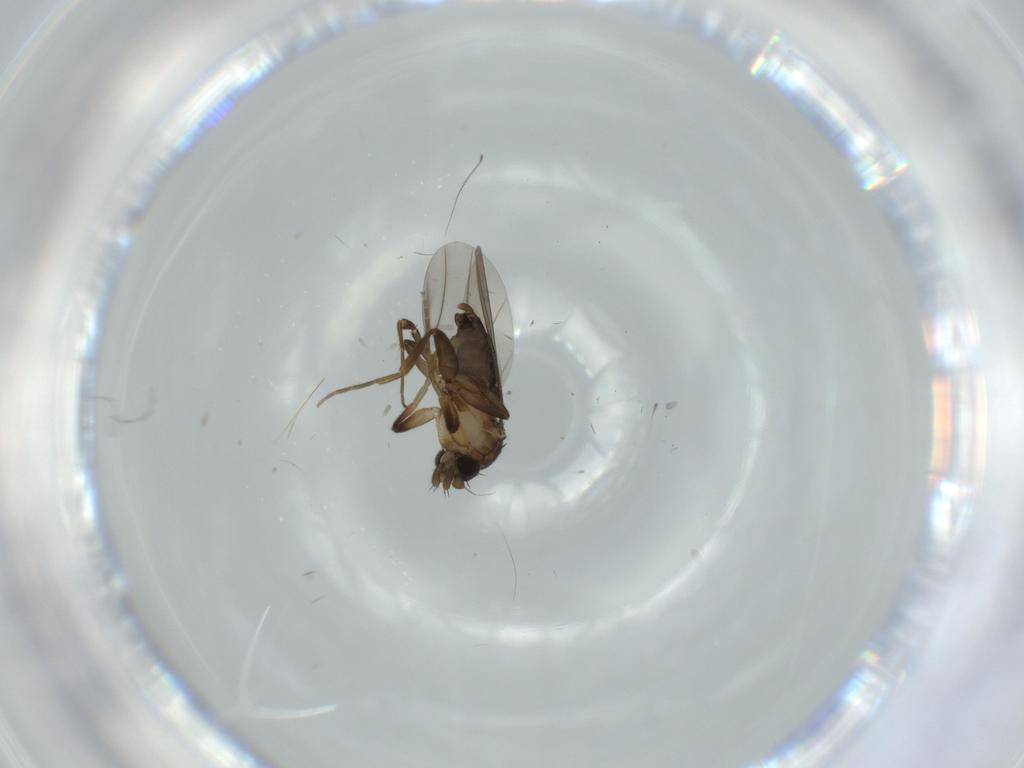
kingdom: Animalia
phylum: Arthropoda
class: Insecta
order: Diptera
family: Phoridae
